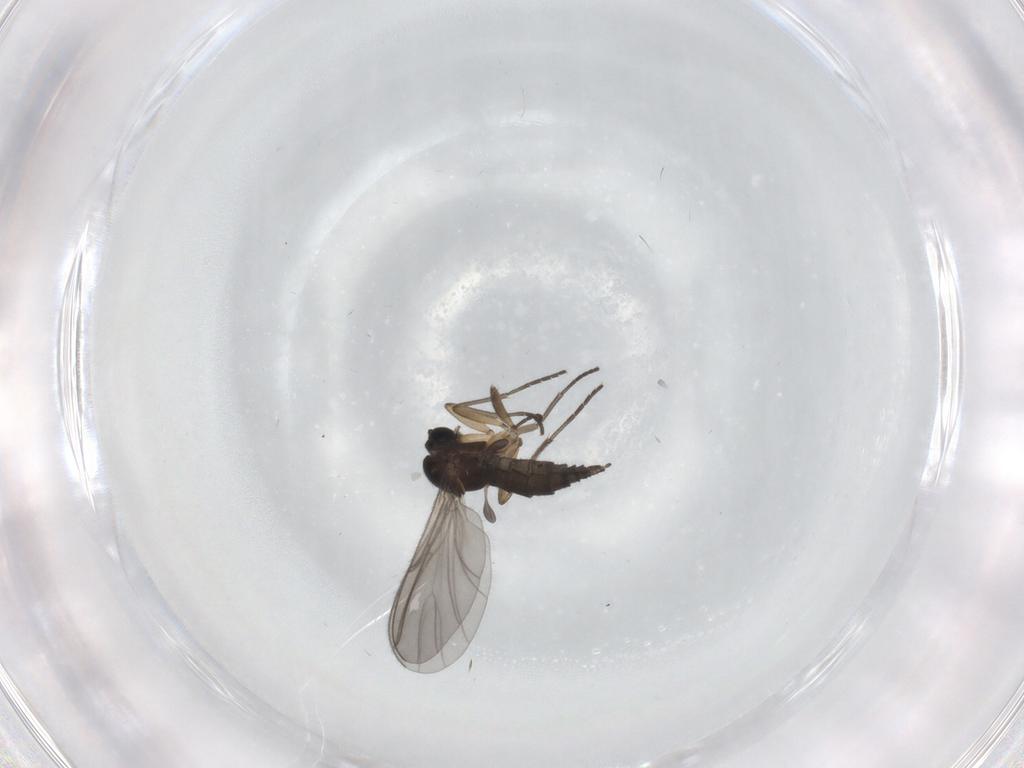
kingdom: Animalia
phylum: Arthropoda
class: Insecta
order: Diptera
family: Sciaridae
